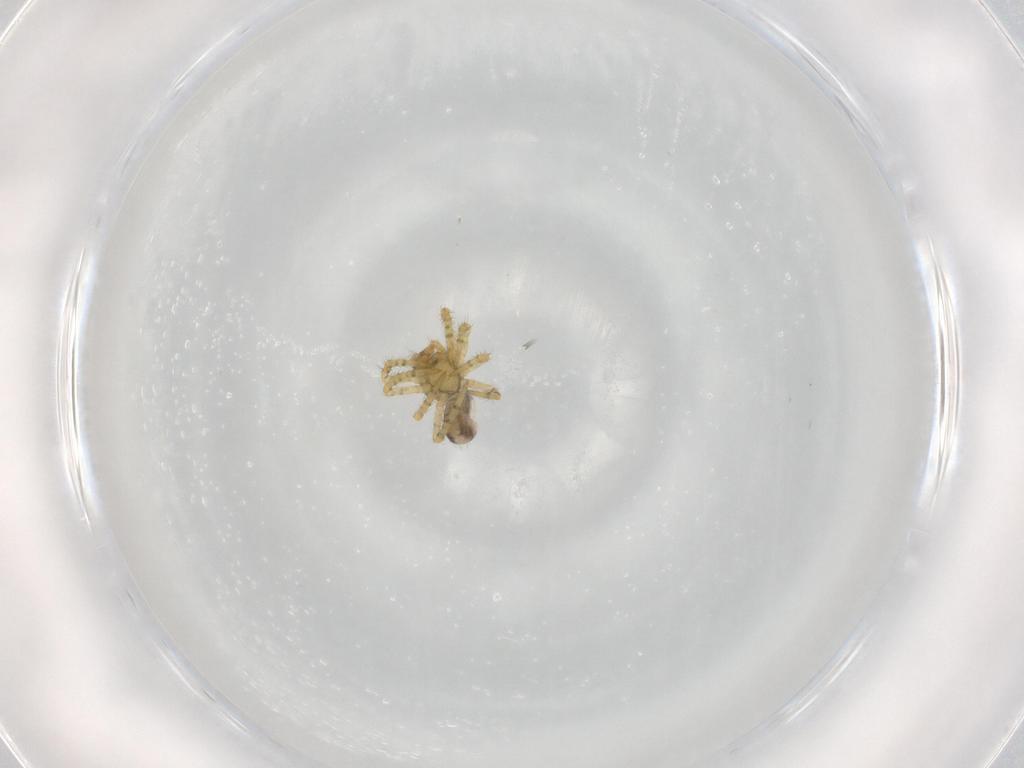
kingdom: Animalia
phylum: Arthropoda
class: Arachnida
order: Araneae
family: Theridiidae
